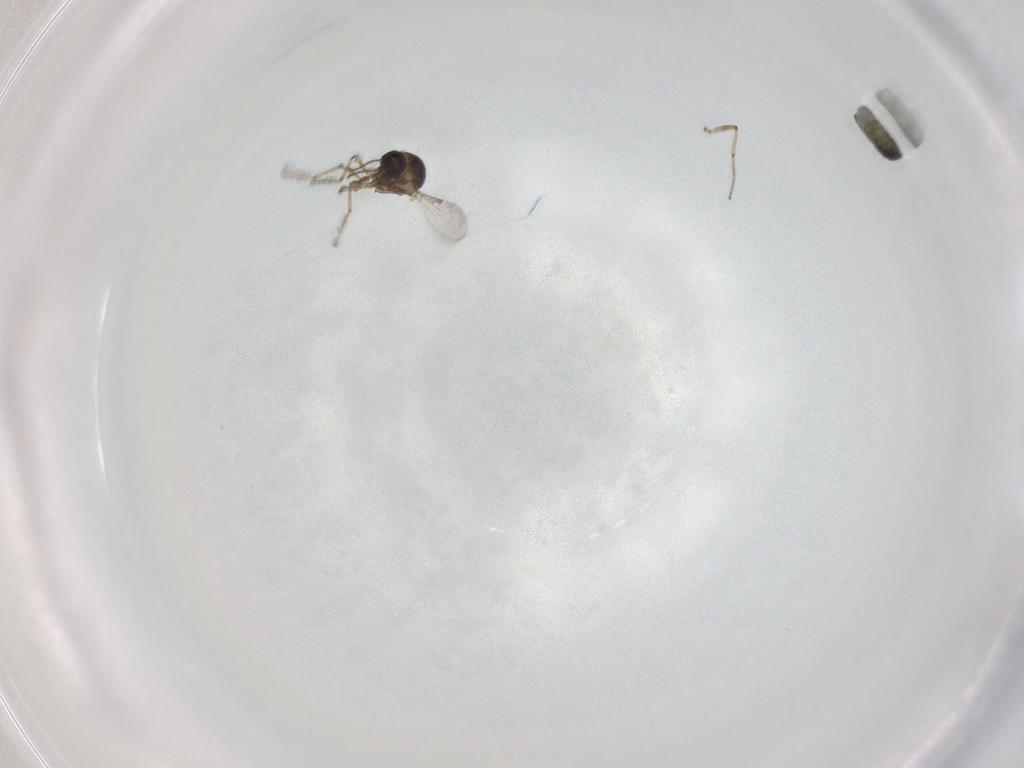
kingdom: Animalia
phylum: Arthropoda
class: Insecta
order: Diptera
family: Ceratopogonidae
